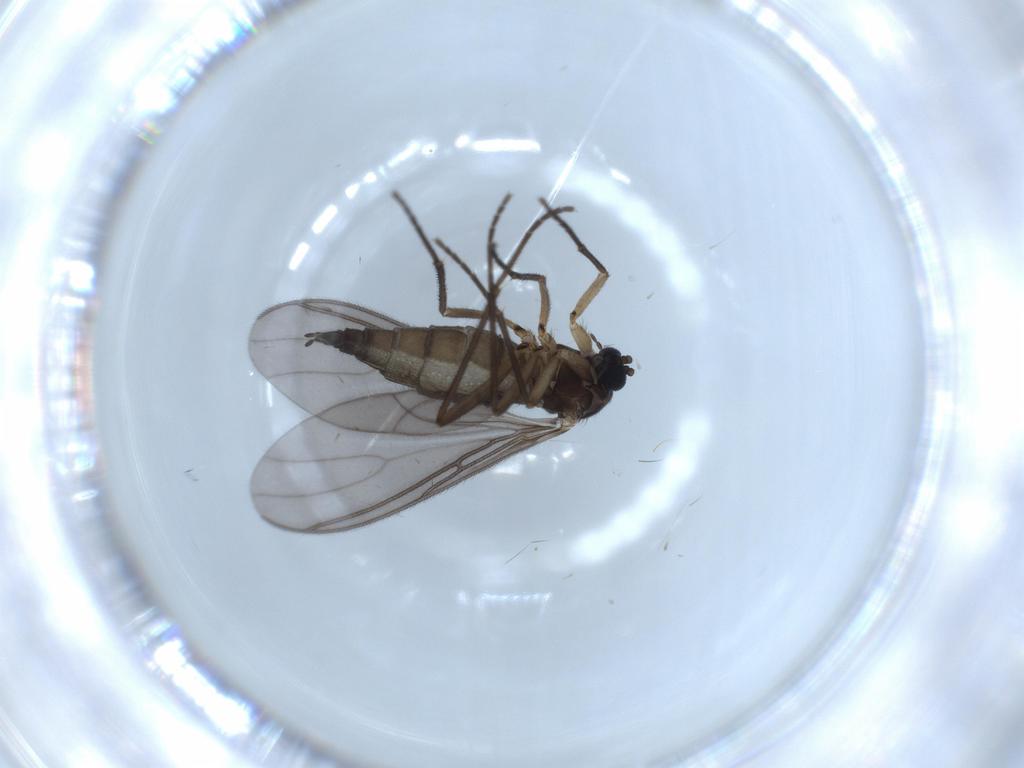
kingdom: Animalia
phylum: Arthropoda
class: Insecta
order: Diptera
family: Sciaridae
